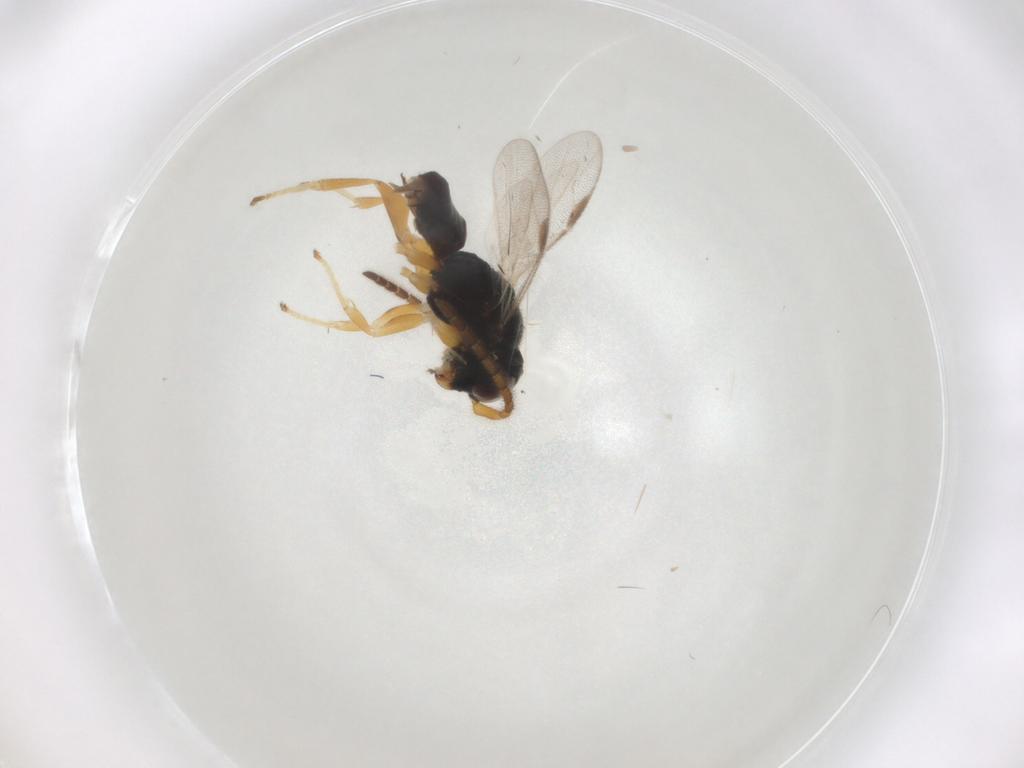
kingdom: Animalia
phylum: Arthropoda
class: Insecta
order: Hymenoptera
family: Dryinidae
